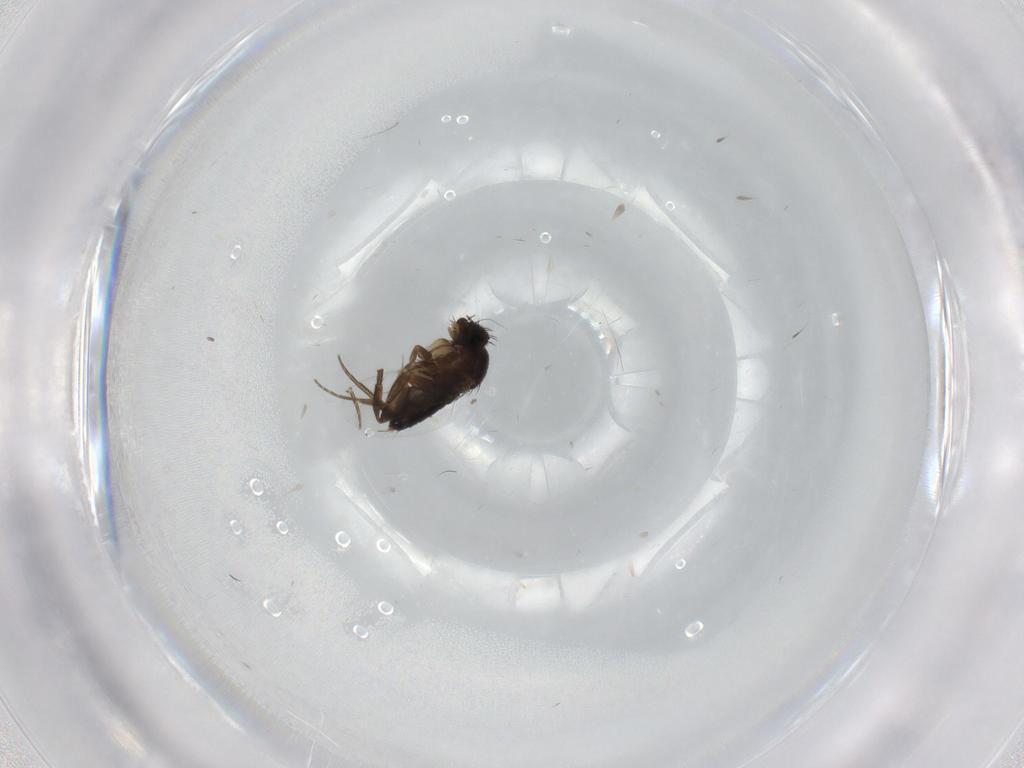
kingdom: Animalia
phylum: Arthropoda
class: Insecta
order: Diptera
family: Phoridae
